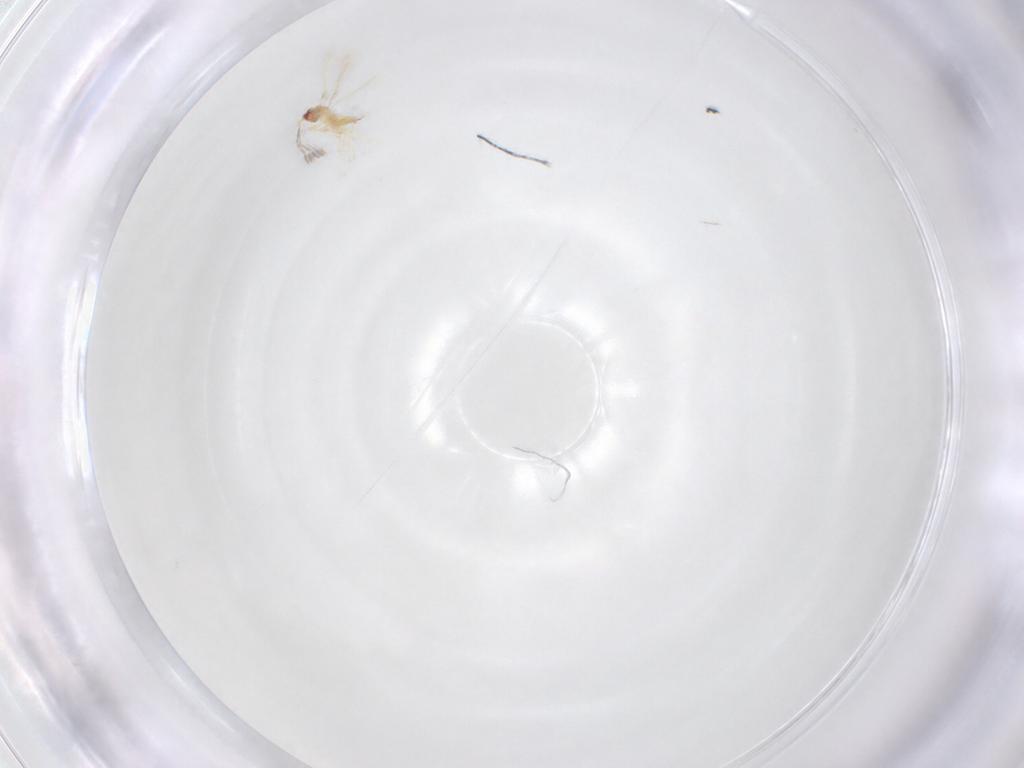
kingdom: Animalia
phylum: Arthropoda
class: Insecta
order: Hymenoptera
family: Mymaridae
